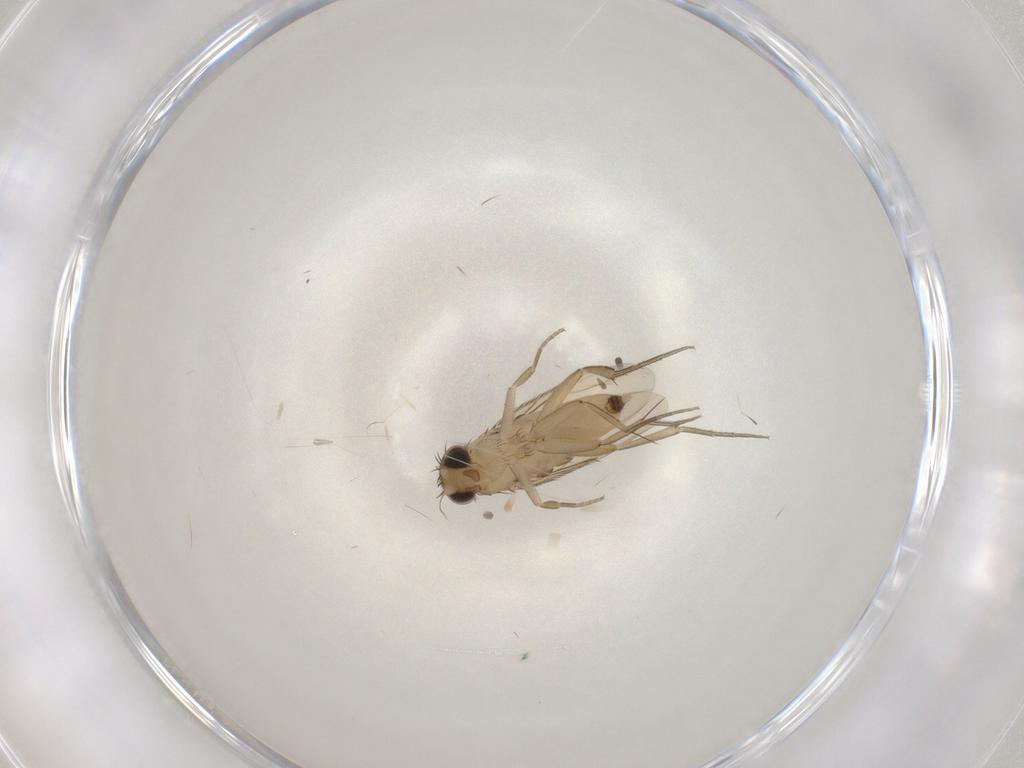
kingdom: Animalia
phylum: Arthropoda
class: Insecta
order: Diptera
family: Phoridae
